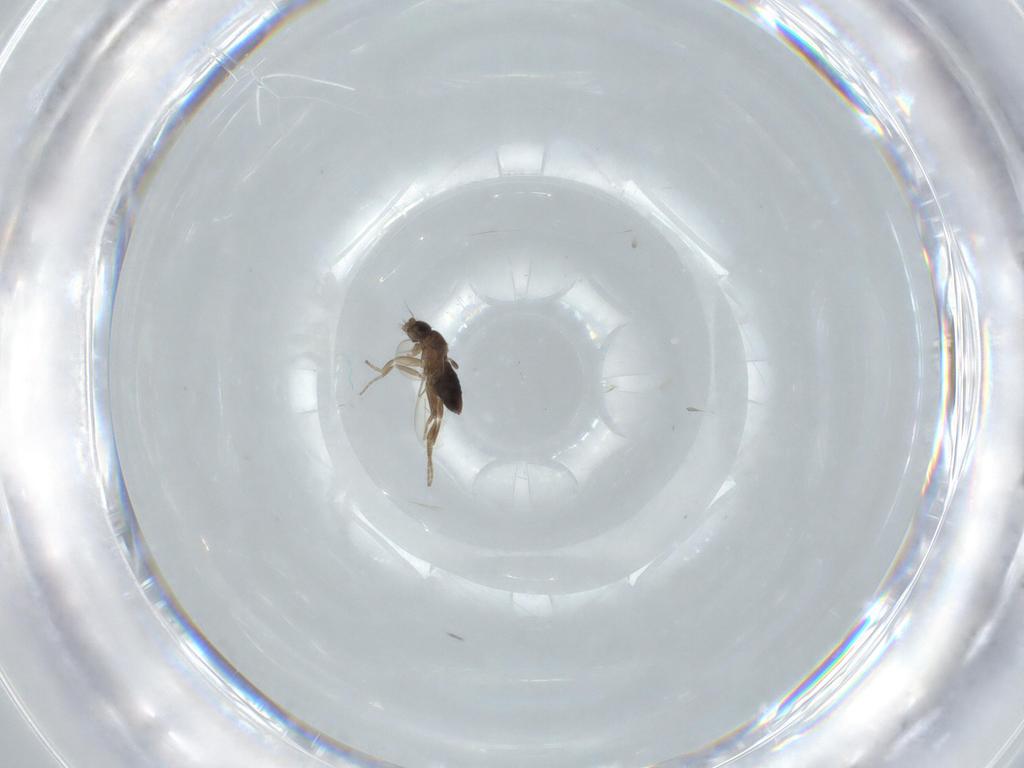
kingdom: Animalia
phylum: Arthropoda
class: Insecta
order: Diptera
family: Phoridae
